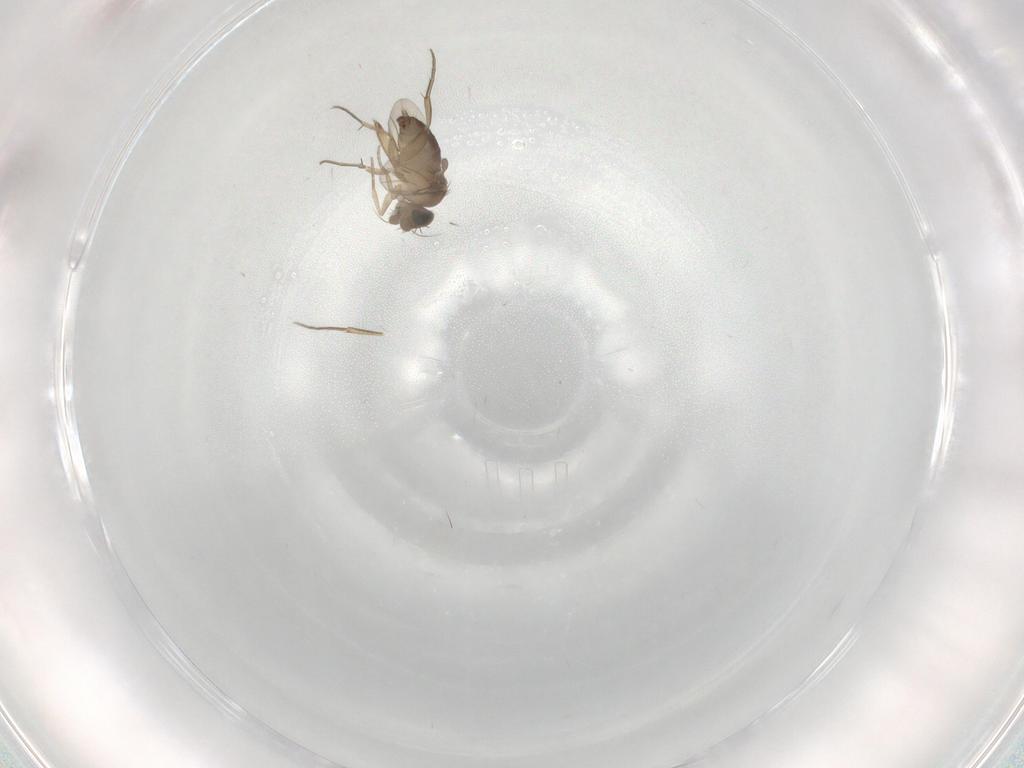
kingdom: Animalia
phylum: Arthropoda
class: Insecta
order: Diptera
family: Phoridae
